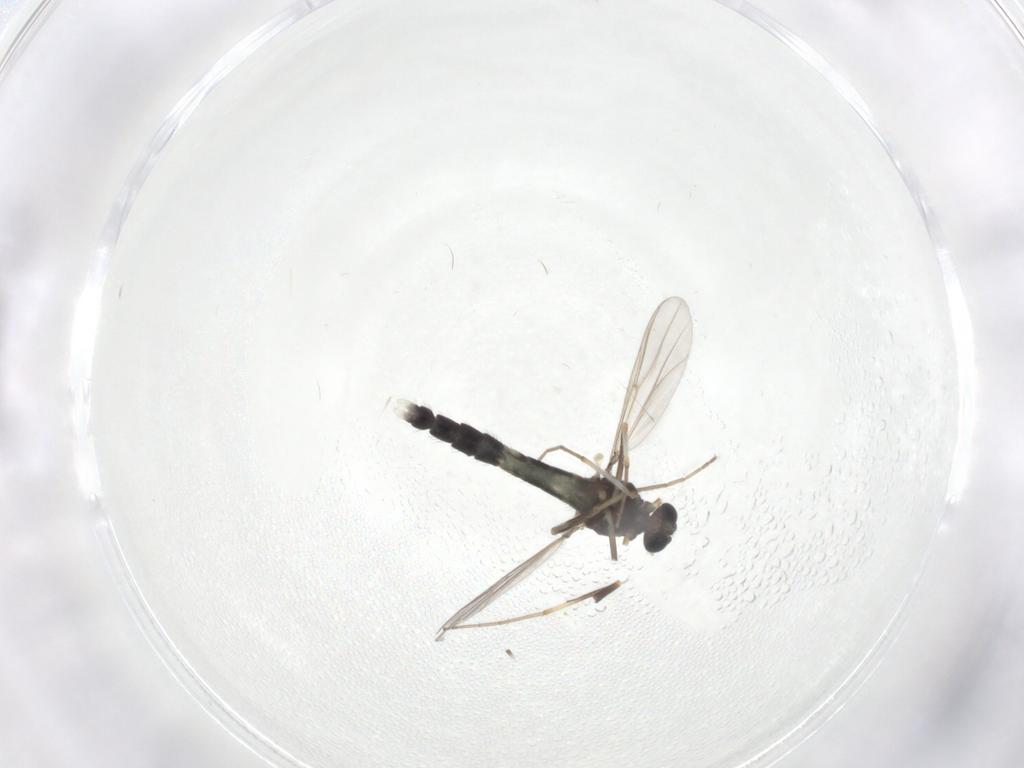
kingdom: Animalia
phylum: Arthropoda
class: Insecta
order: Diptera
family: Chironomidae
